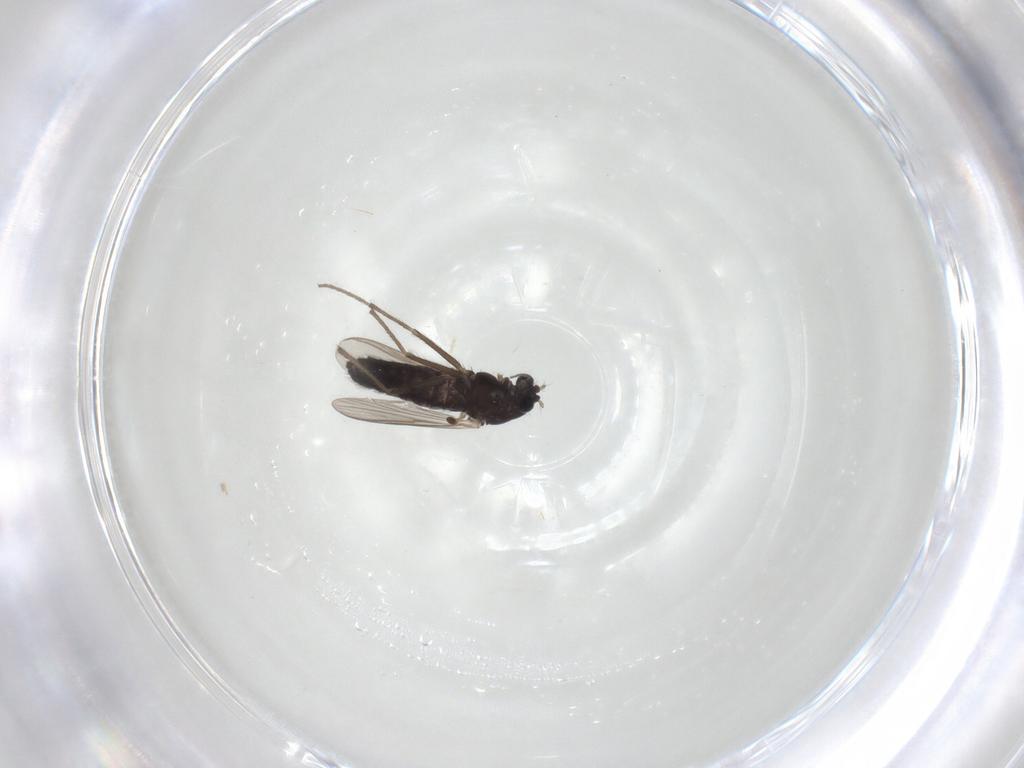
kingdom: Animalia
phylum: Arthropoda
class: Insecta
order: Diptera
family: Chironomidae
